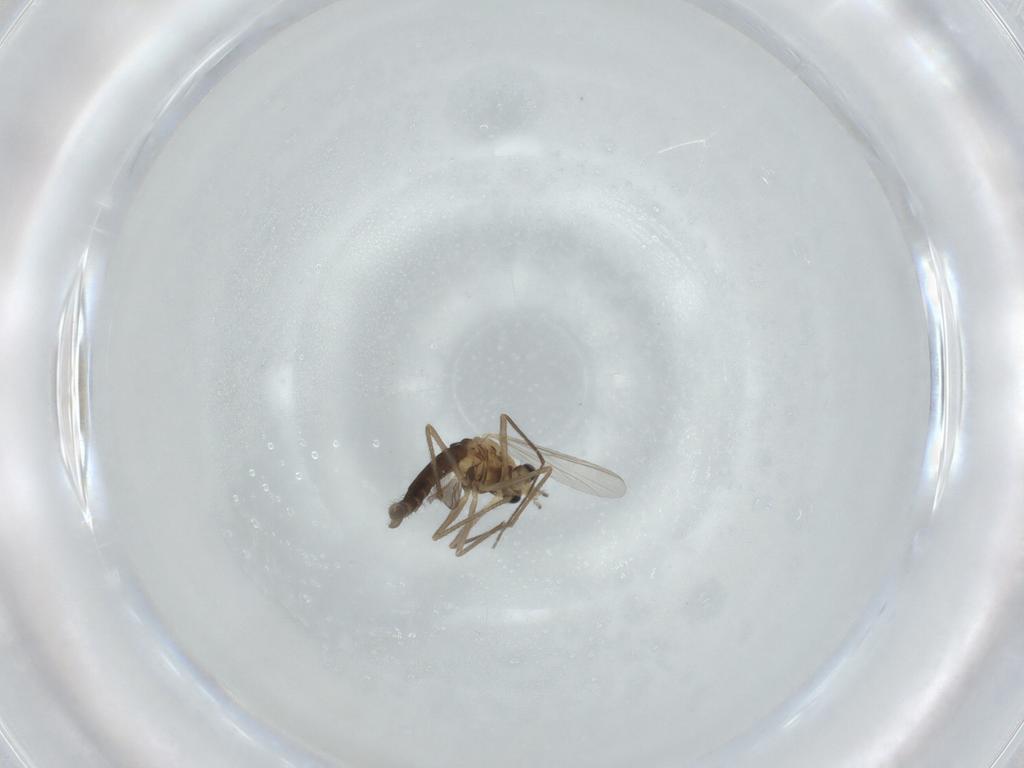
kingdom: Animalia
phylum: Arthropoda
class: Insecta
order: Diptera
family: Chironomidae
